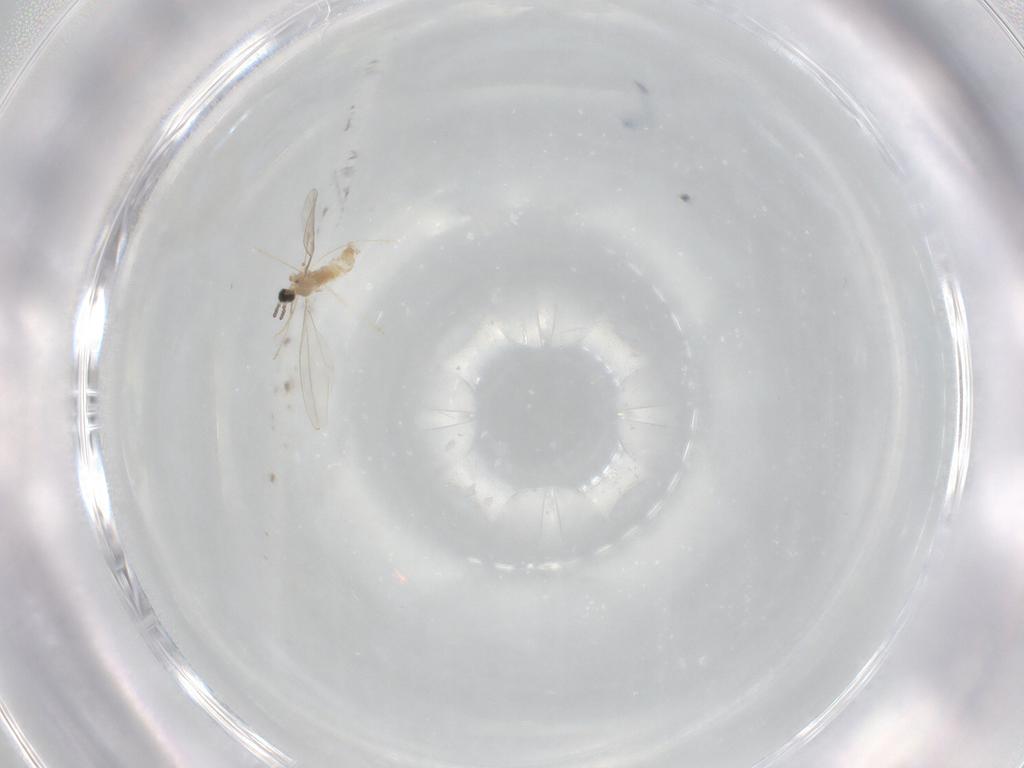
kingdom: Animalia
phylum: Arthropoda
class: Insecta
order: Diptera
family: Cecidomyiidae
